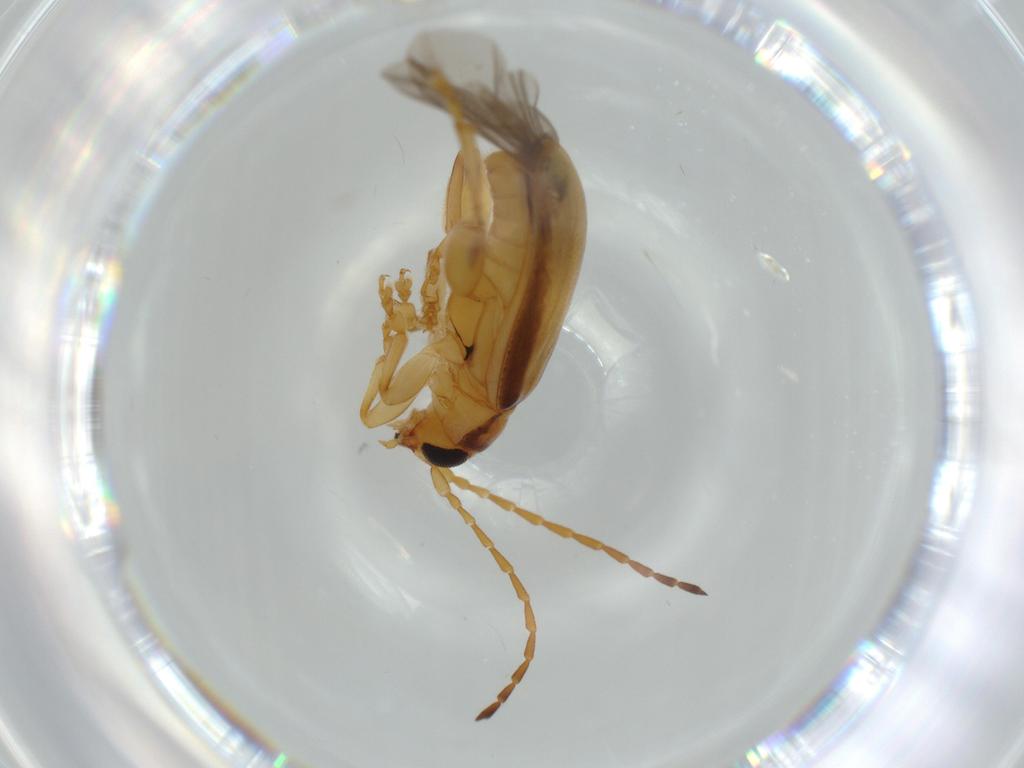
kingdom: Animalia
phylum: Arthropoda
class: Insecta
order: Coleoptera
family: Chrysomelidae
